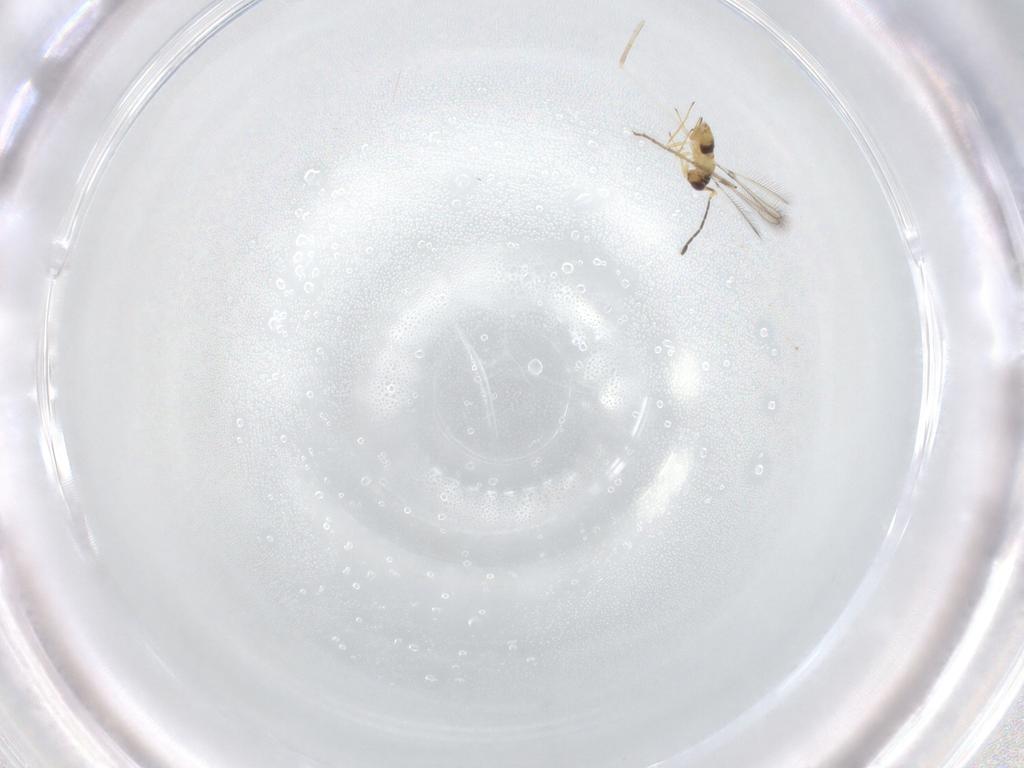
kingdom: Animalia
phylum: Arthropoda
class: Insecta
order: Hymenoptera
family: Mymaridae
